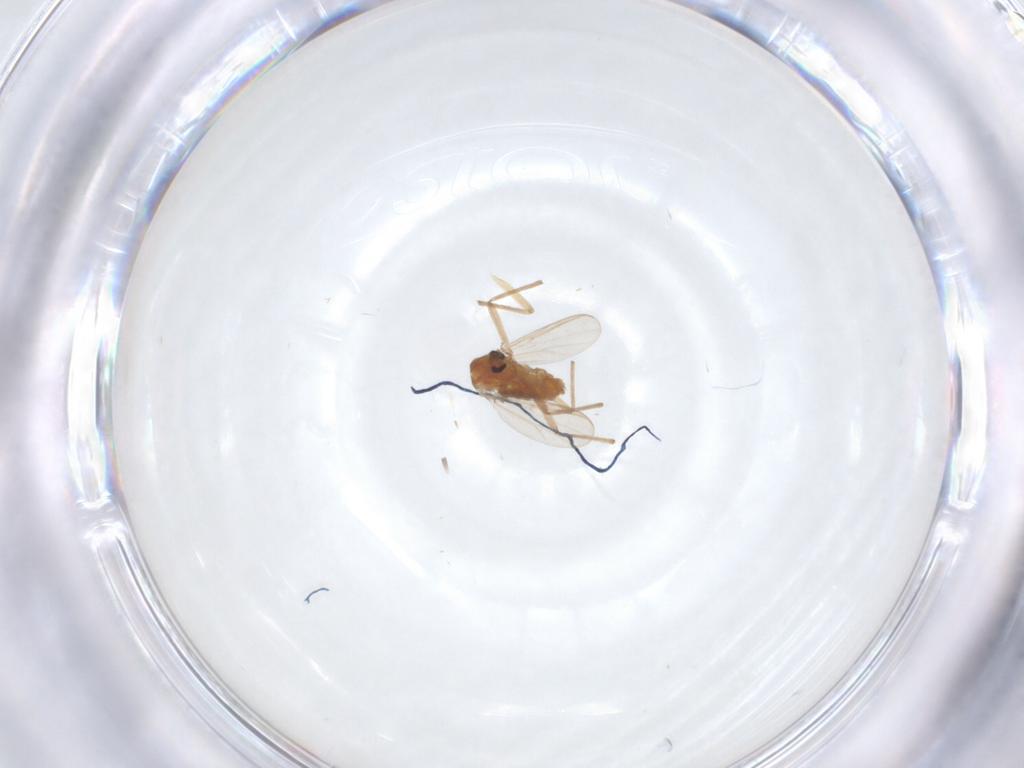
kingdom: Animalia
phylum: Arthropoda
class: Insecta
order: Diptera
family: Chironomidae
